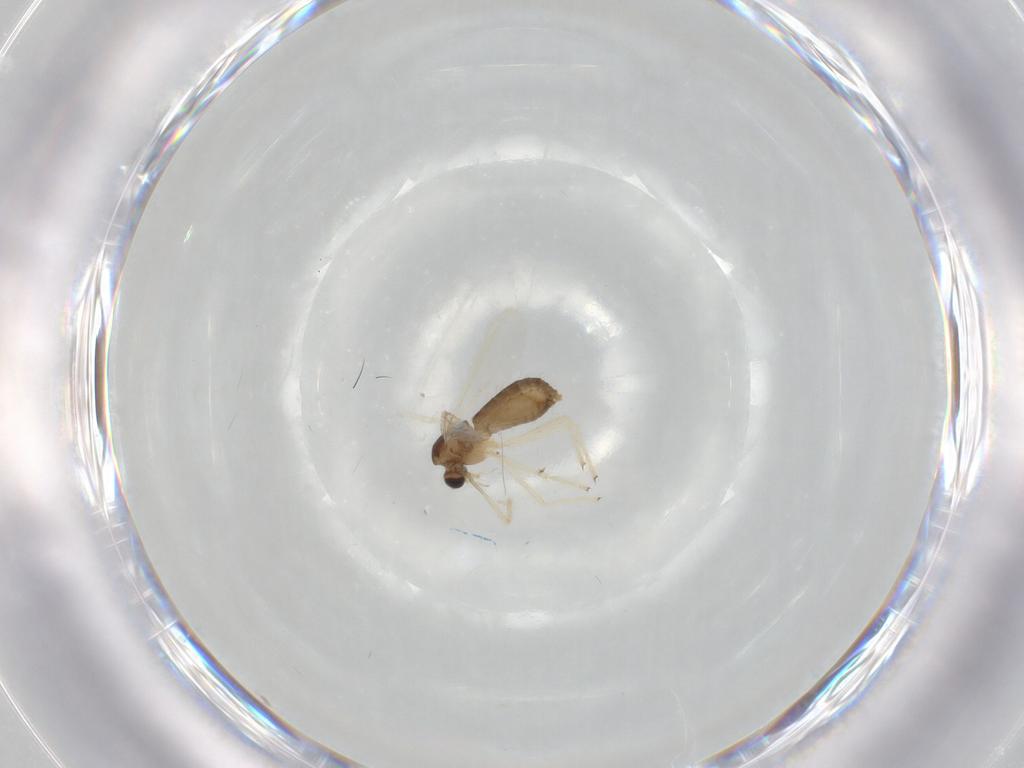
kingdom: Animalia
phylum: Arthropoda
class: Insecta
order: Diptera
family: Chironomidae
